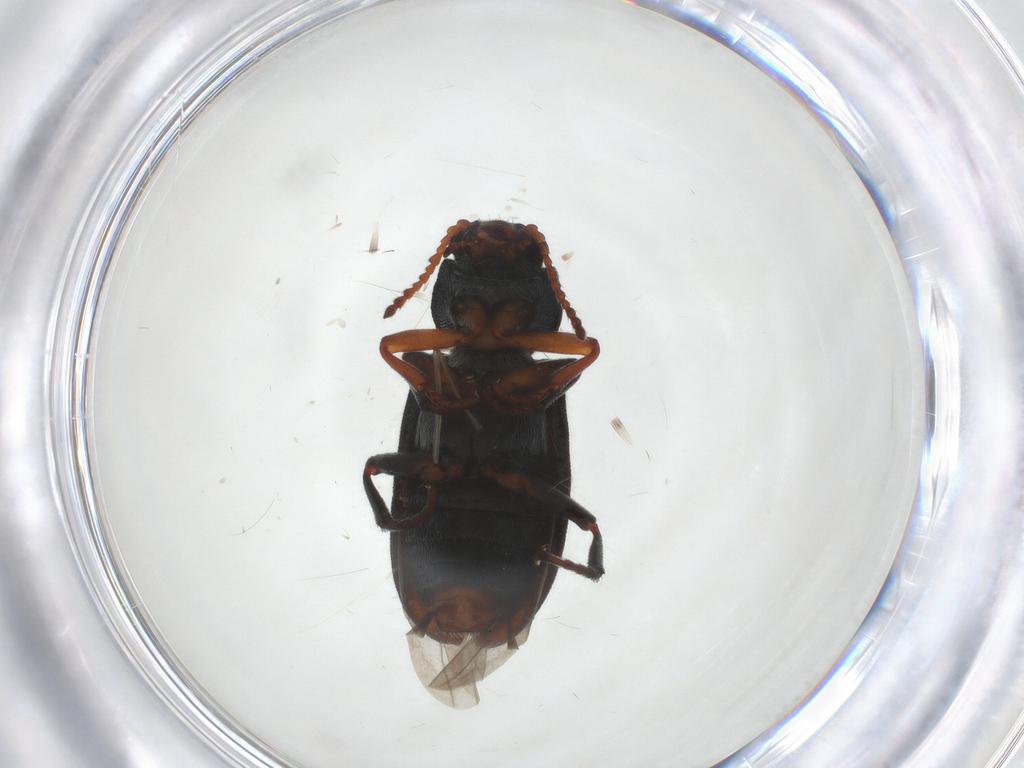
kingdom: Animalia
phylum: Arthropoda
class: Insecta
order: Coleoptera
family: Melyridae
